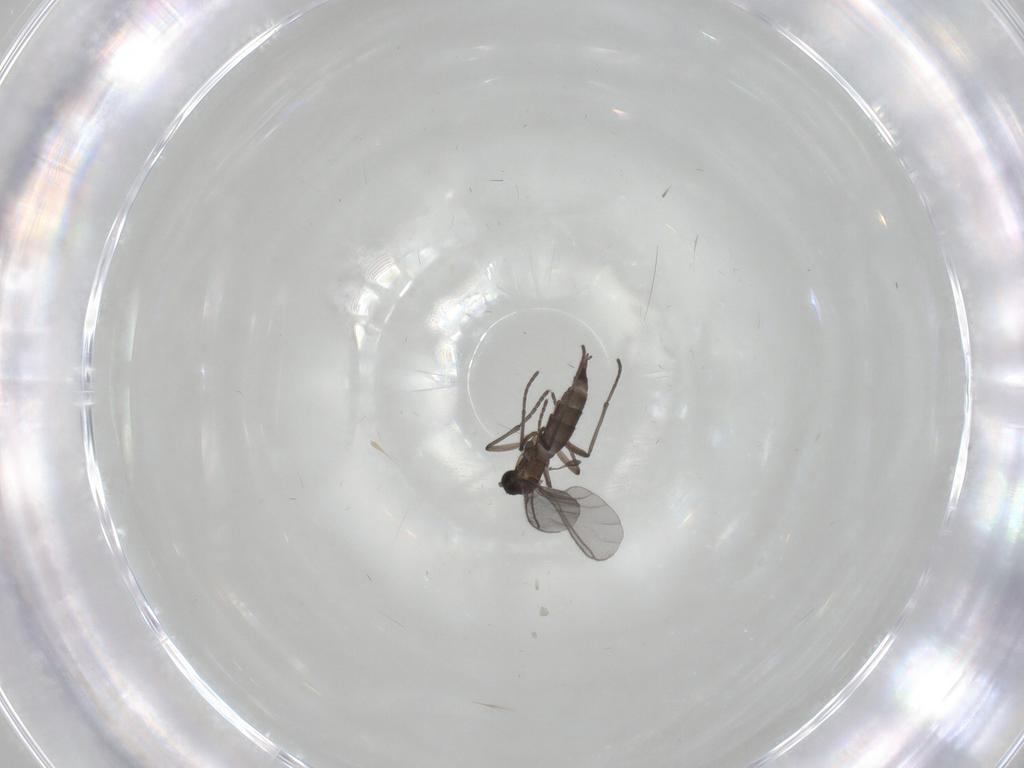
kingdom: Animalia
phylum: Arthropoda
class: Insecta
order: Diptera
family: Sciaridae
